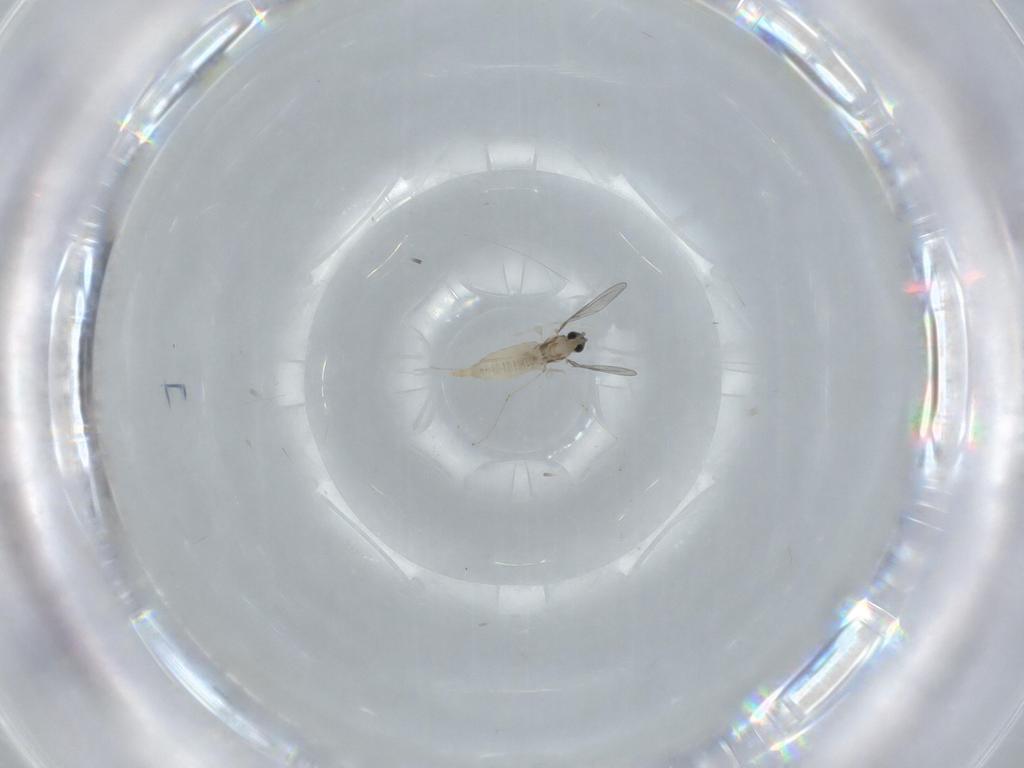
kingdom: Animalia
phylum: Arthropoda
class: Insecta
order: Diptera
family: Cecidomyiidae
